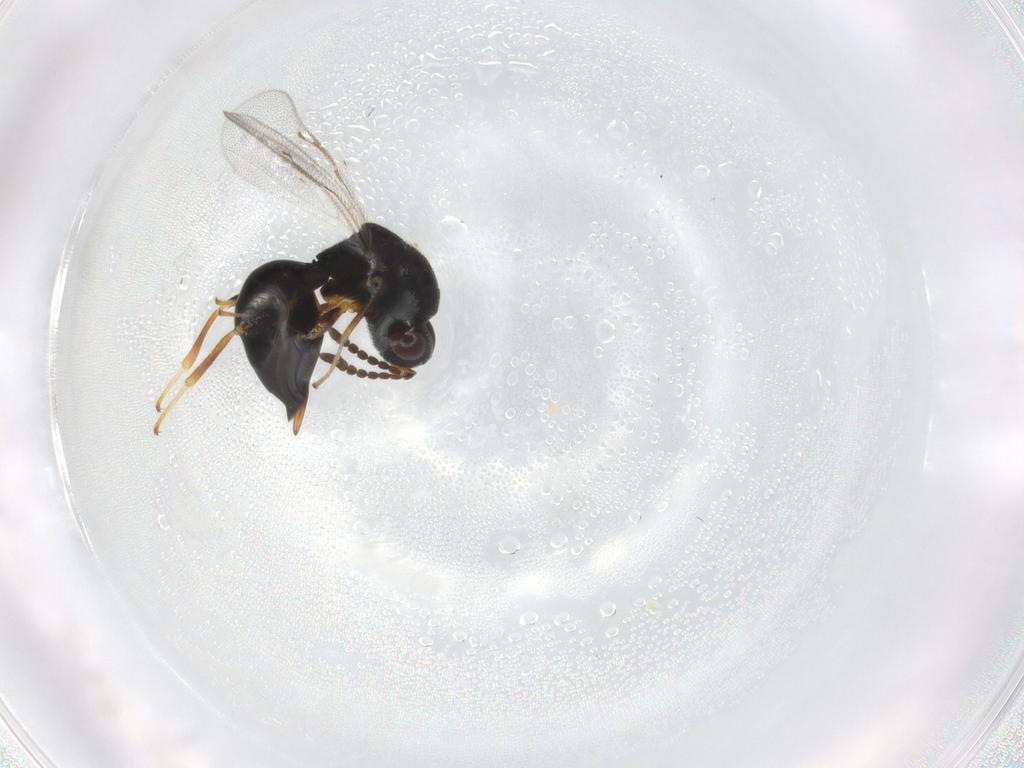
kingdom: Animalia
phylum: Arthropoda
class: Insecta
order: Hymenoptera
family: Eurytomidae
